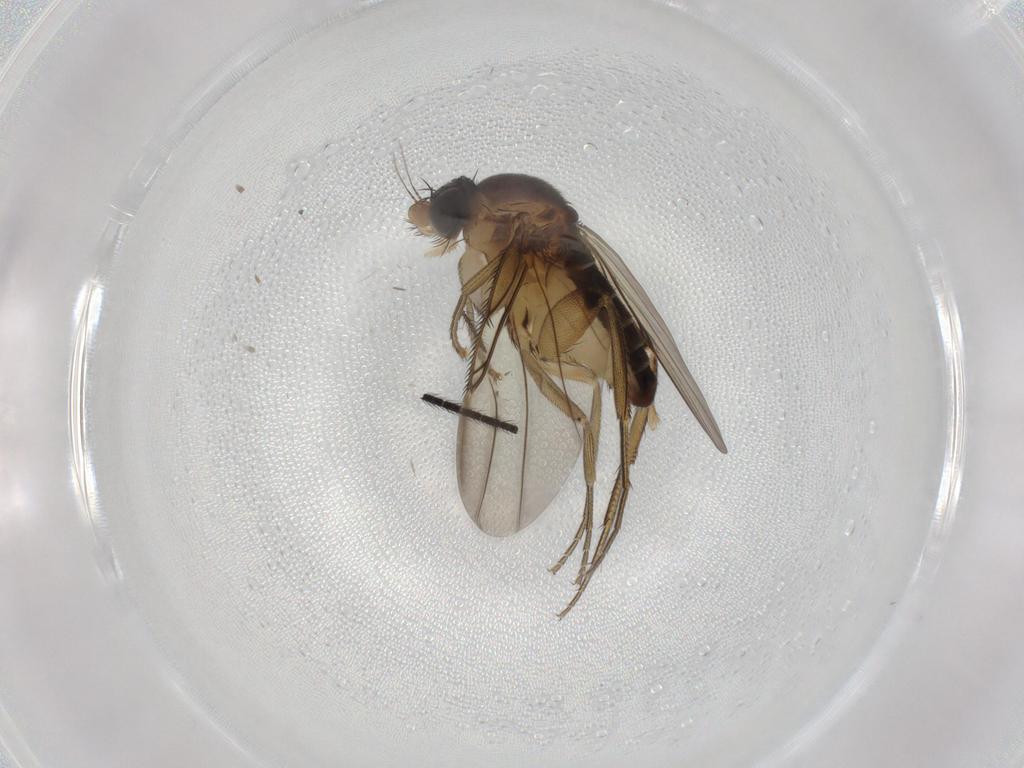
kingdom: Animalia
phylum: Arthropoda
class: Insecta
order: Diptera
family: Phoridae
